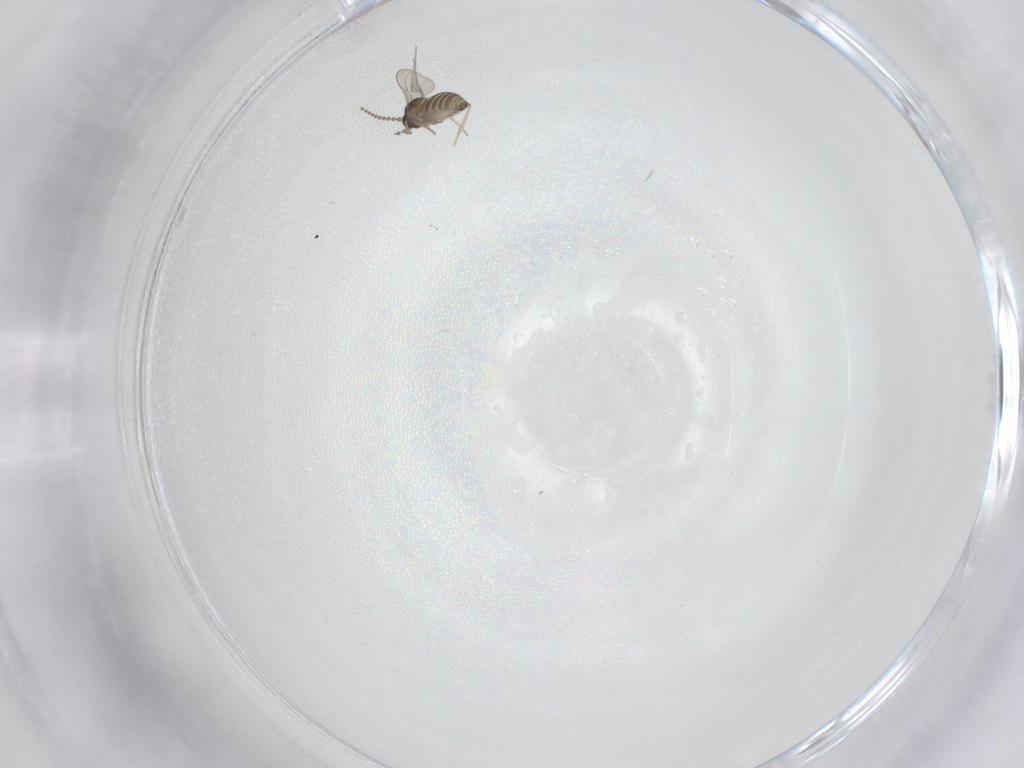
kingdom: Animalia
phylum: Arthropoda
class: Insecta
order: Diptera
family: Cecidomyiidae
